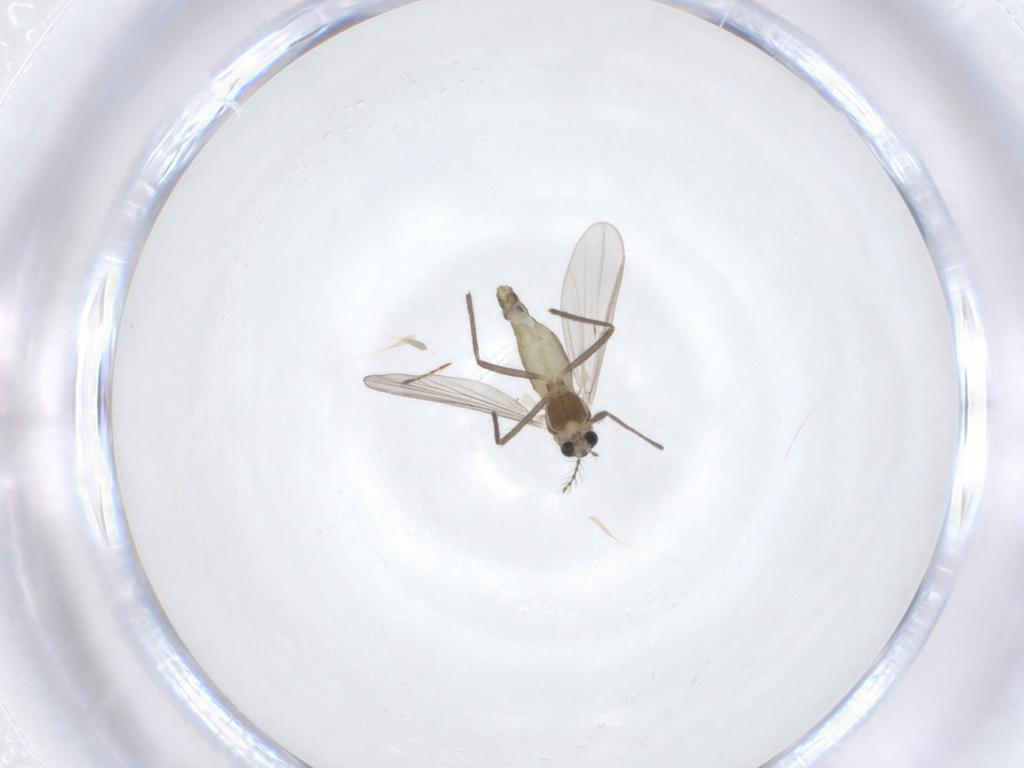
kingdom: Animalia
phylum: Arthropoda
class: Insecta
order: Diptera
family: Chironomidae
